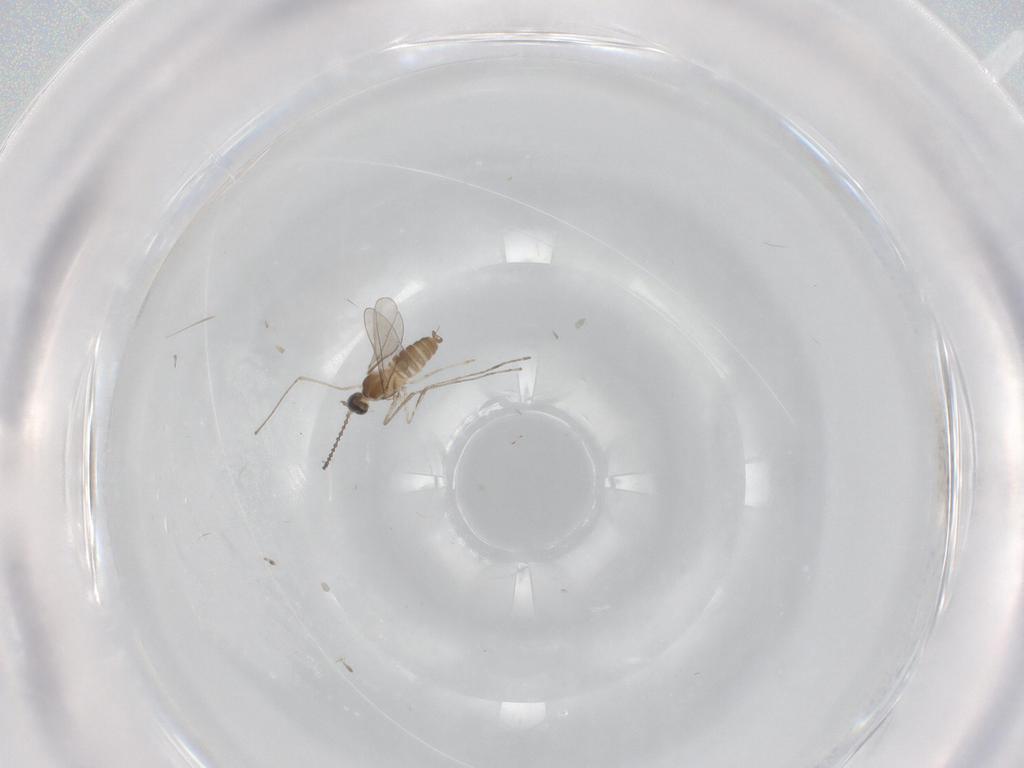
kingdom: Animalia
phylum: Arthropoda
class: Insecta
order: Diptera
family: Cecidomyiidae
